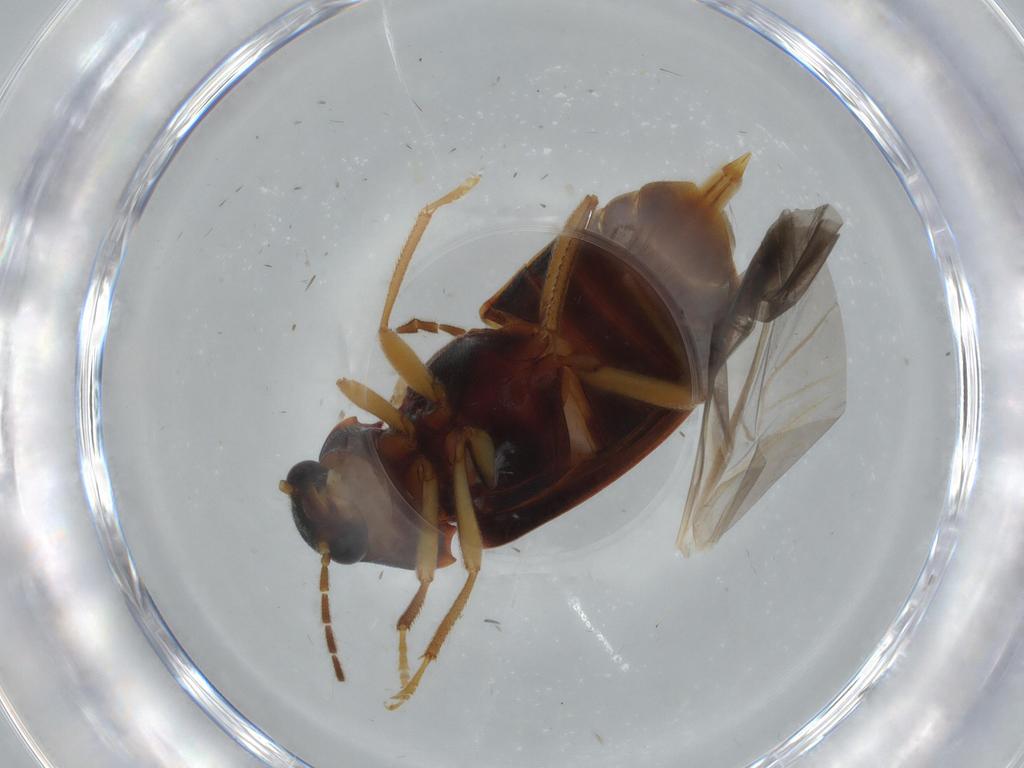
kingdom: Animalia
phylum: Arthropoda
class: Insecta
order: Coleoptera
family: Ptilodactylidae
